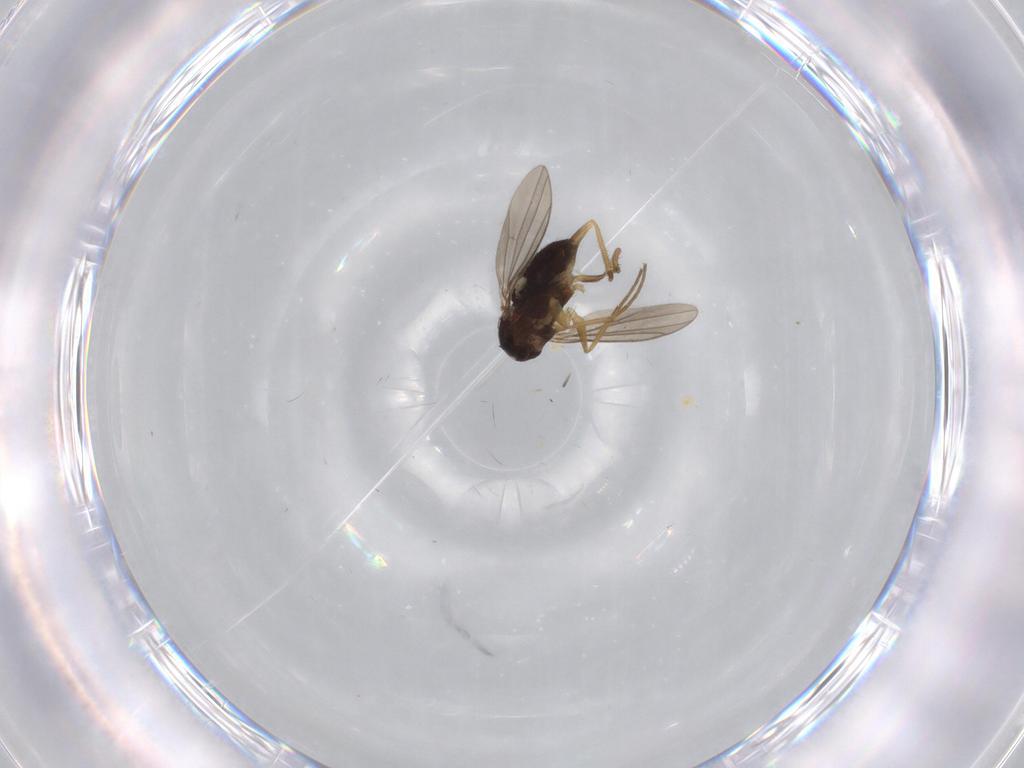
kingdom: Animalia
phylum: Arthropoda
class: Insecta
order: Diptera
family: Dolichopodidae
